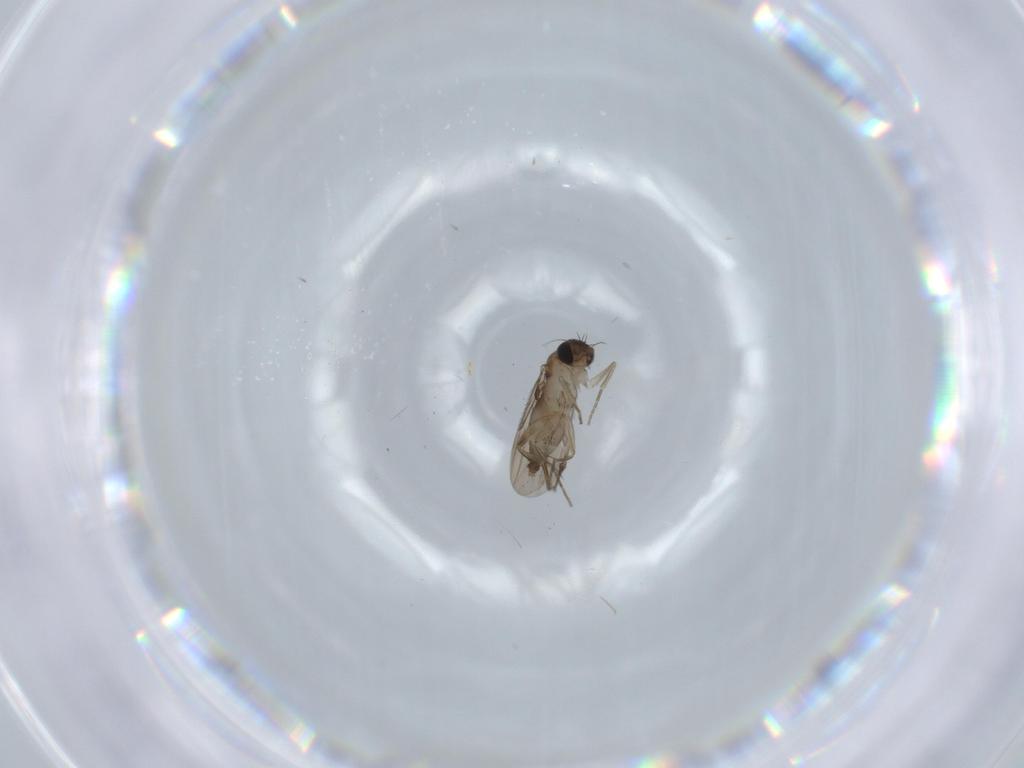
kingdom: Animalia
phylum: Arthropoda
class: Insecta
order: Diptera
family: Phoridae
